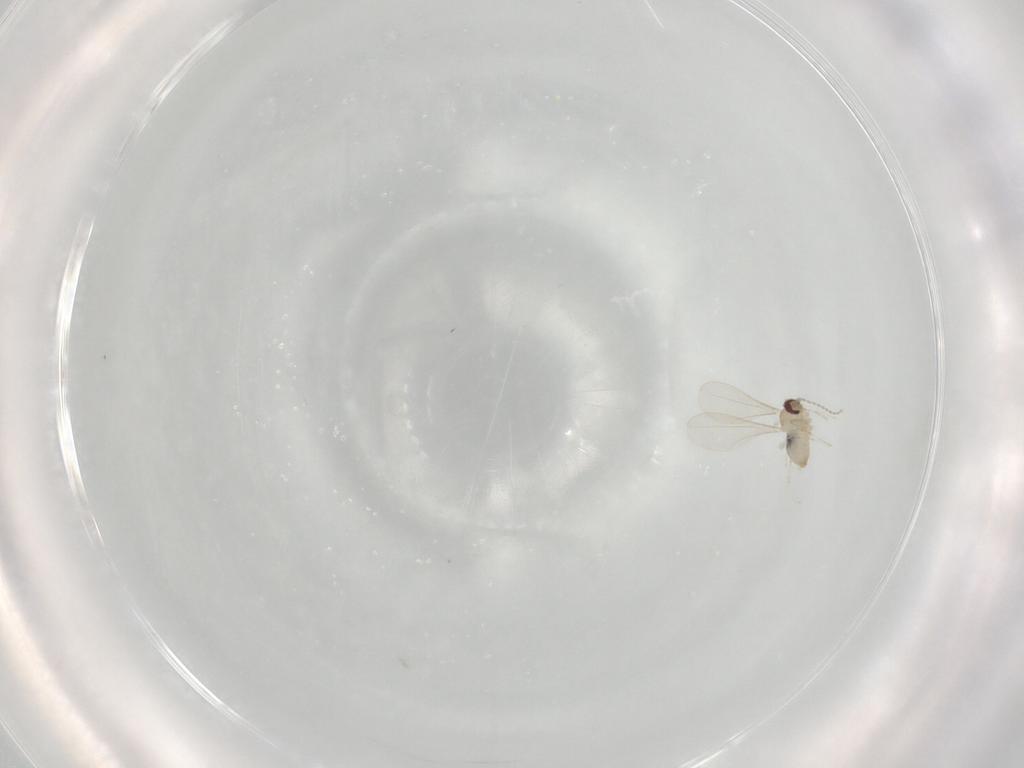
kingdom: Animalia
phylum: Arthropoda
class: Insecta
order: Diptera
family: Cecidomyiidae
